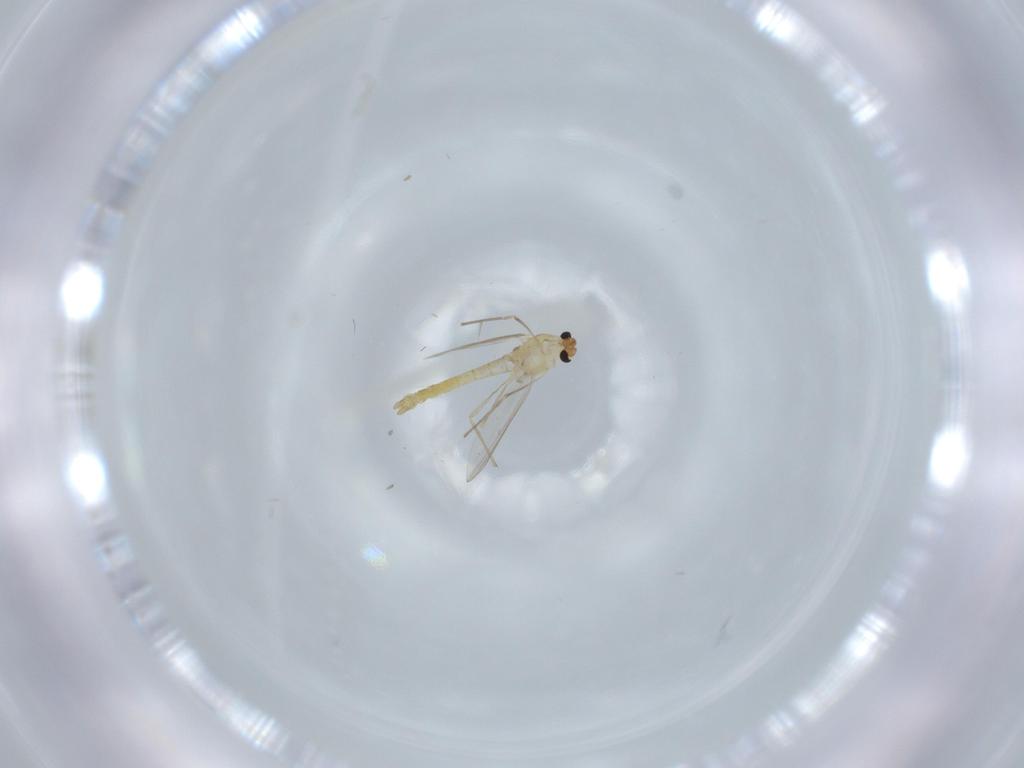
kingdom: Animalia
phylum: Arthropoda
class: Insecta
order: Diptera
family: Chironomidae
